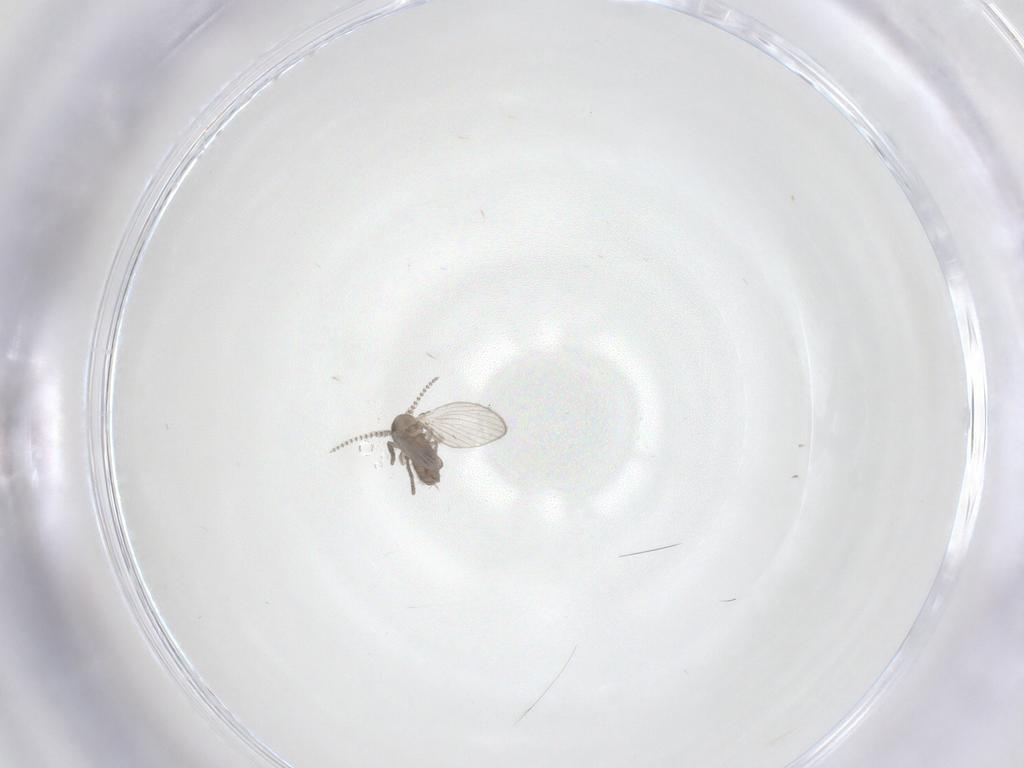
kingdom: Animalia
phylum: Arthropoda
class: Insecta
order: Diptera
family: Psychodidae
